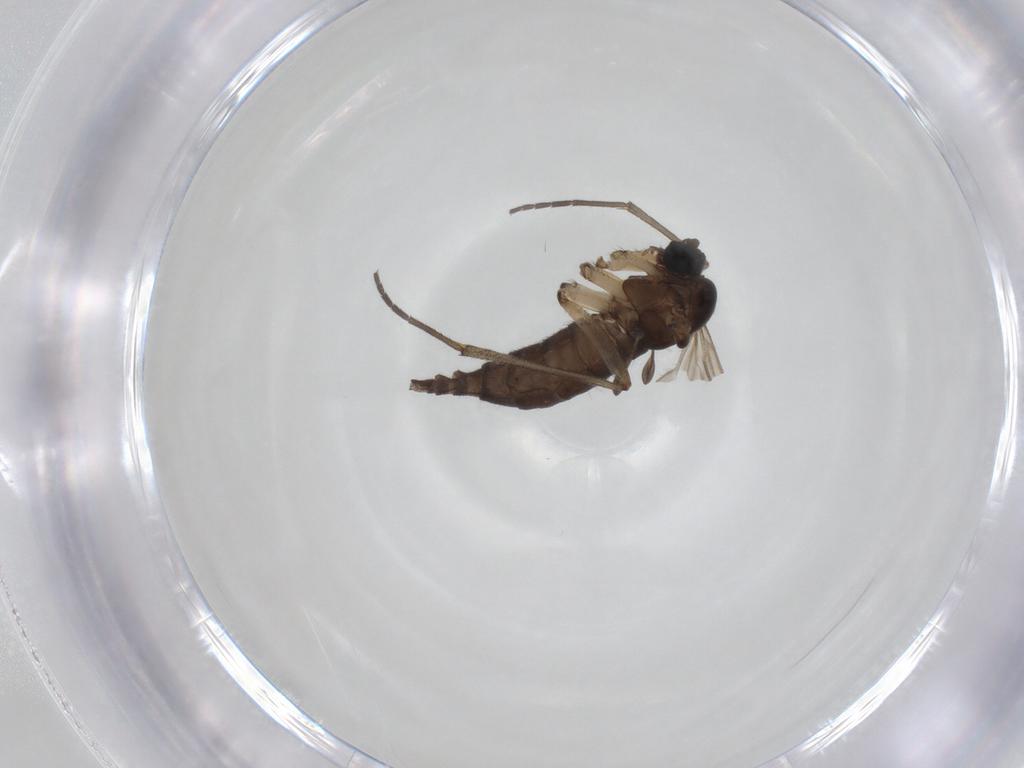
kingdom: Animalia
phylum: Arthropoda
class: Insecta
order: Diptera
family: Sciaridae
